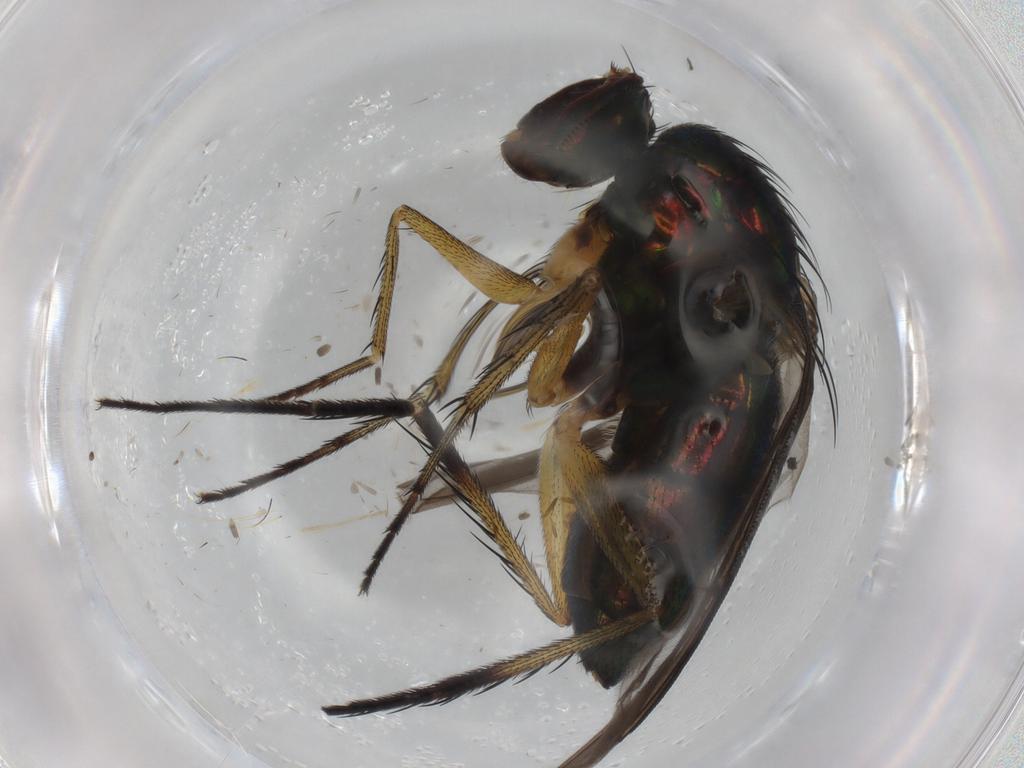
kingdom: Animalia
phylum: Arthropoda
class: Insecta
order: Diptera
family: Dolichopodidae
